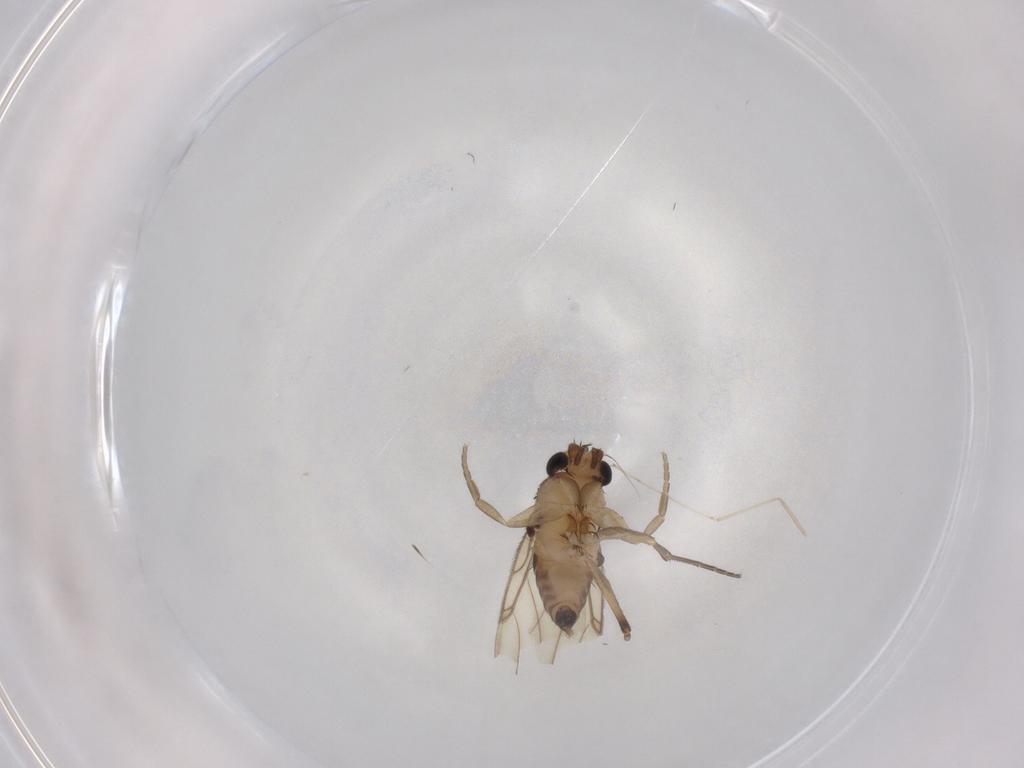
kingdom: Animalia
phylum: Arthropoda
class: Insecta
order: Diptera
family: Phoridae
